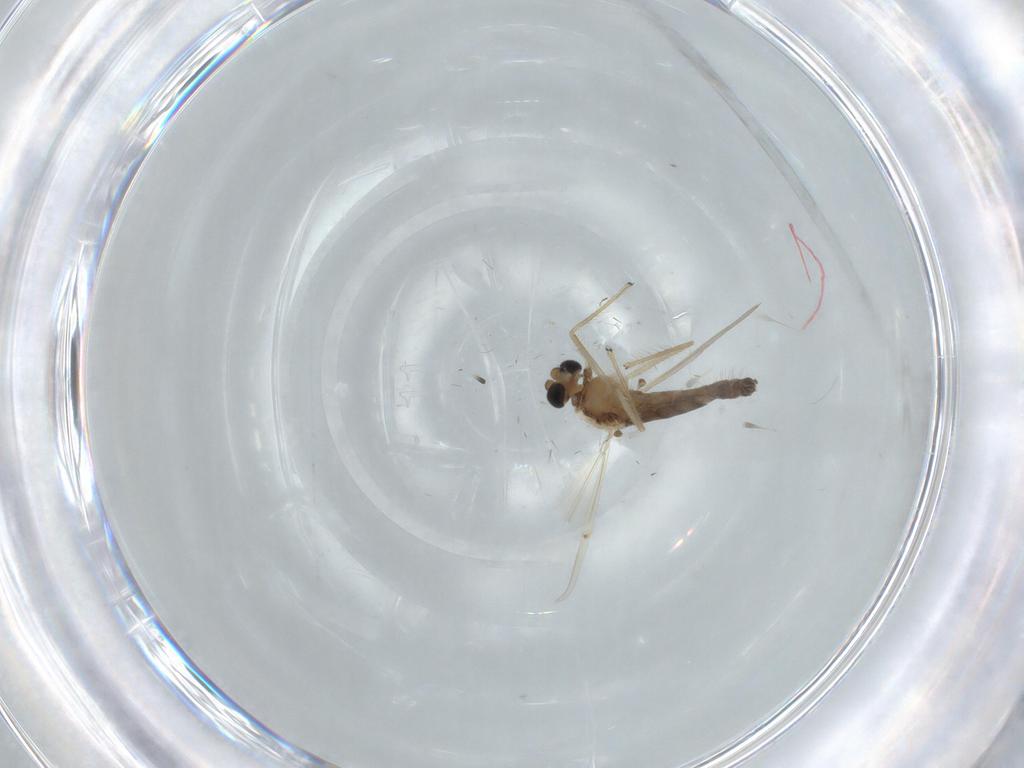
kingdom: Animalia
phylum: Arthropoda
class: Insecta
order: Diptera
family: Chironomidae
